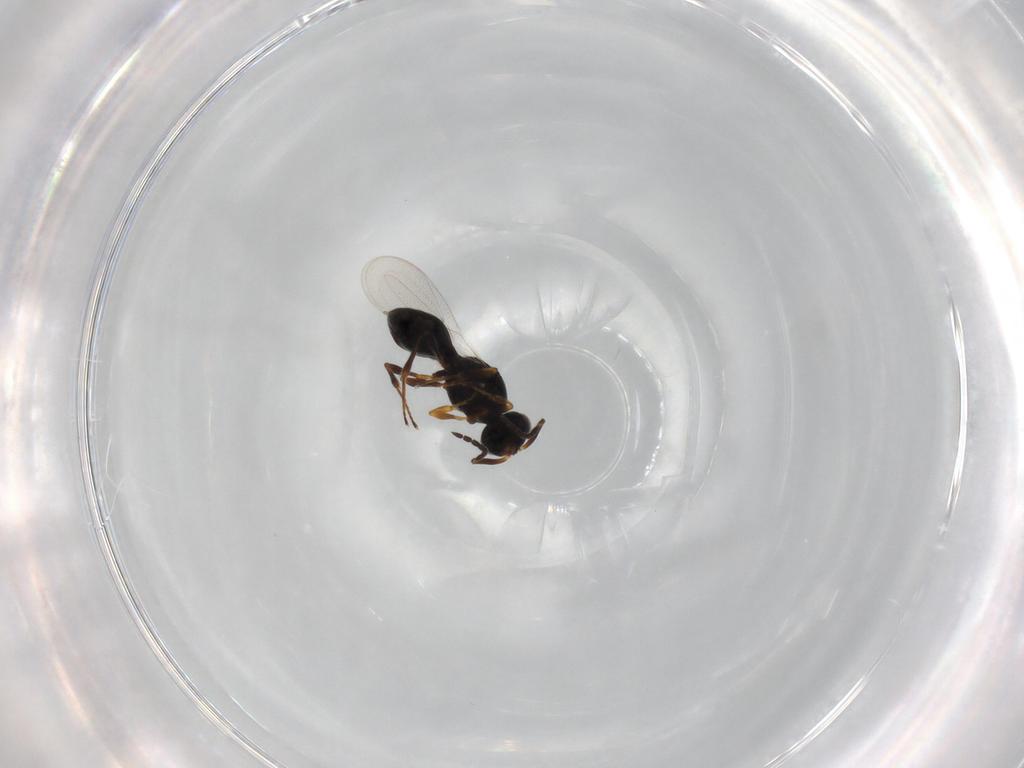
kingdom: Animalia
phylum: Arthropoda
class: Insecta
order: Hymenoptera
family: Platygastridae
